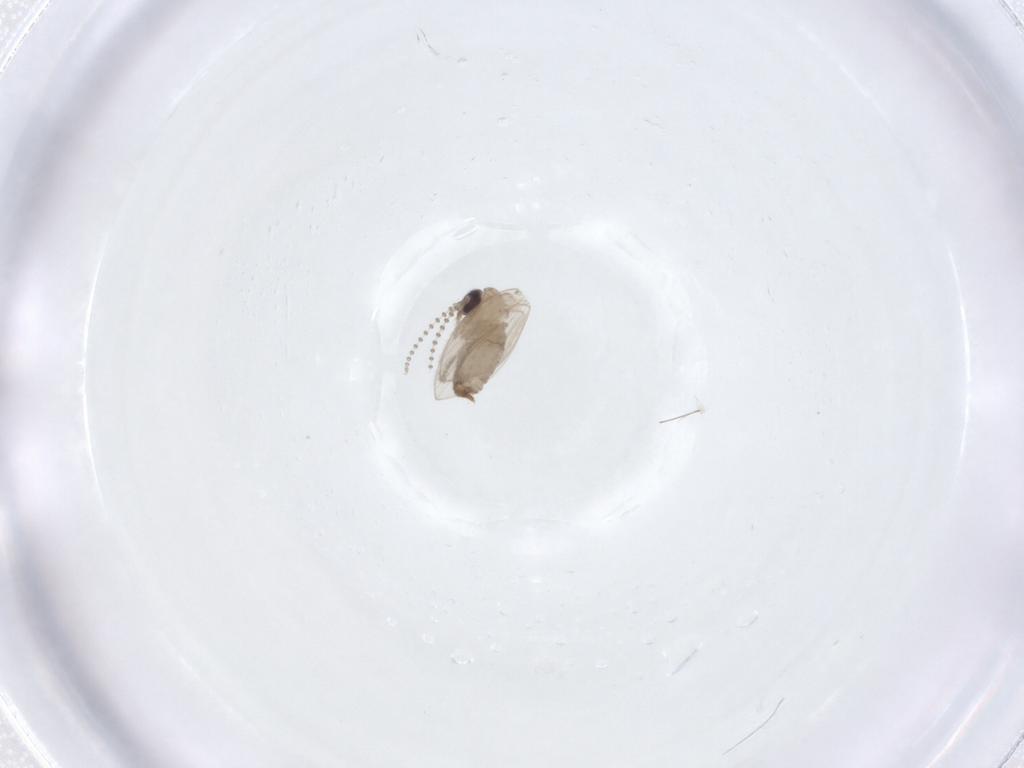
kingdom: Animalia
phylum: Arthropoda
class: Insecta
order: Diptera
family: Psychodidae
